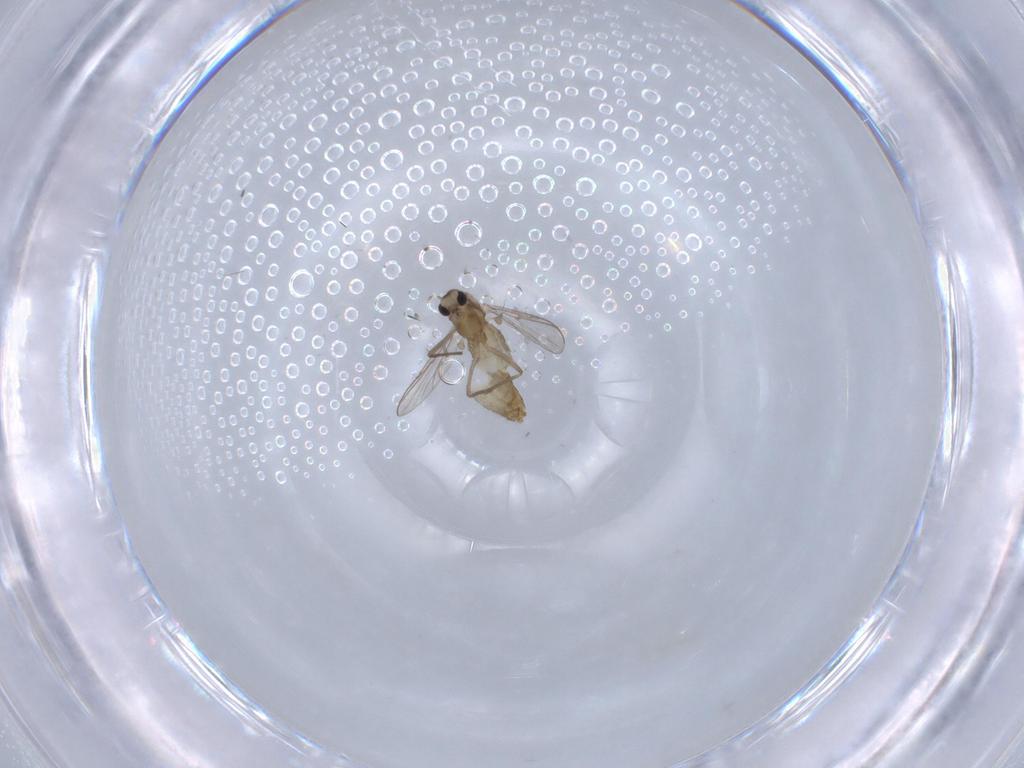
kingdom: Animalia
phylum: Arthropoda
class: Insecta
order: Diptera
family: Chironomidae
